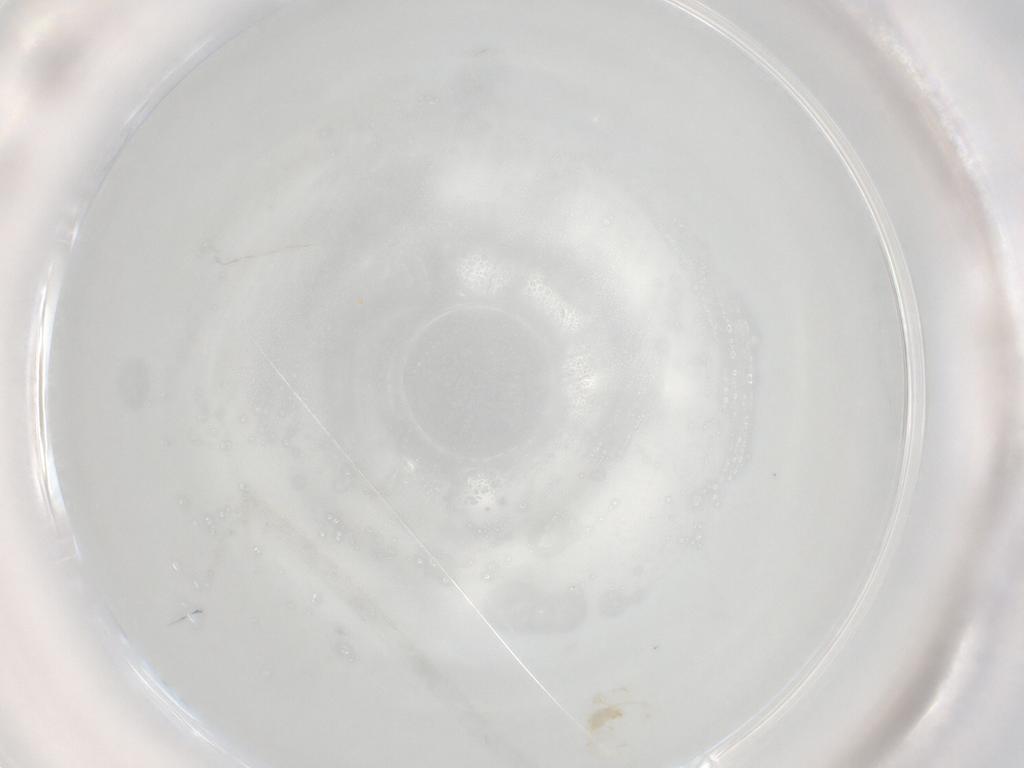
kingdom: Animalia
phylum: Arthropoda
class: Arachnida
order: Trombidiformes
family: Erythraeidae
